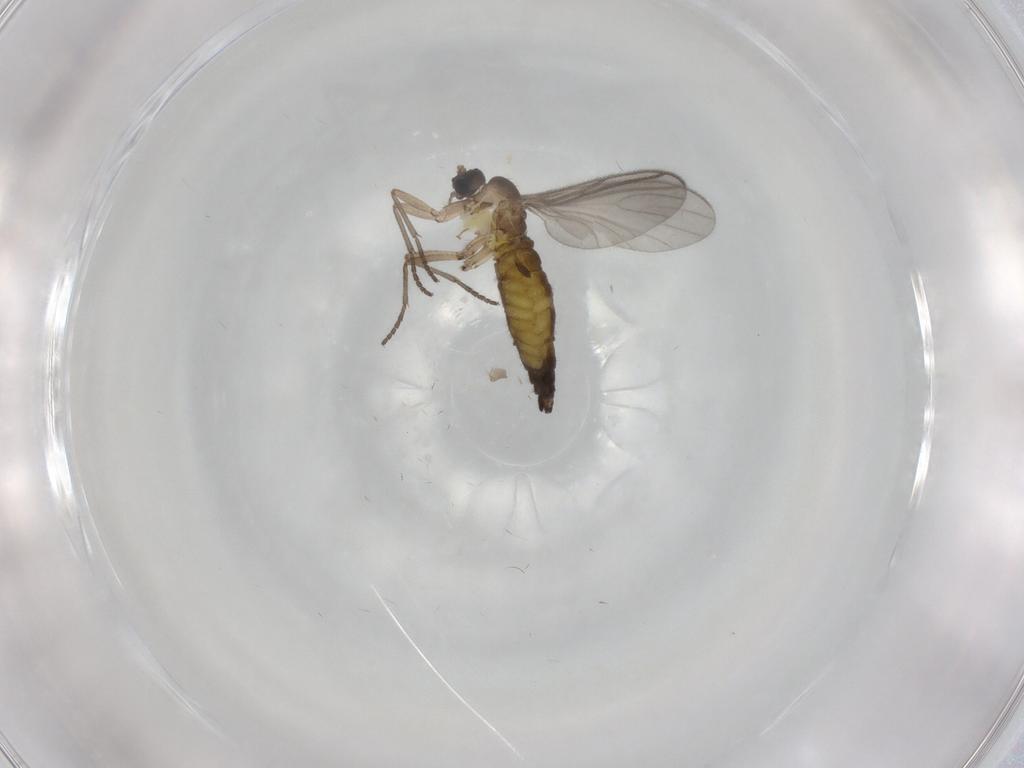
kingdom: Animalia
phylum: Arthropoda
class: Insecta
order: Diptera
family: Sciaridae
